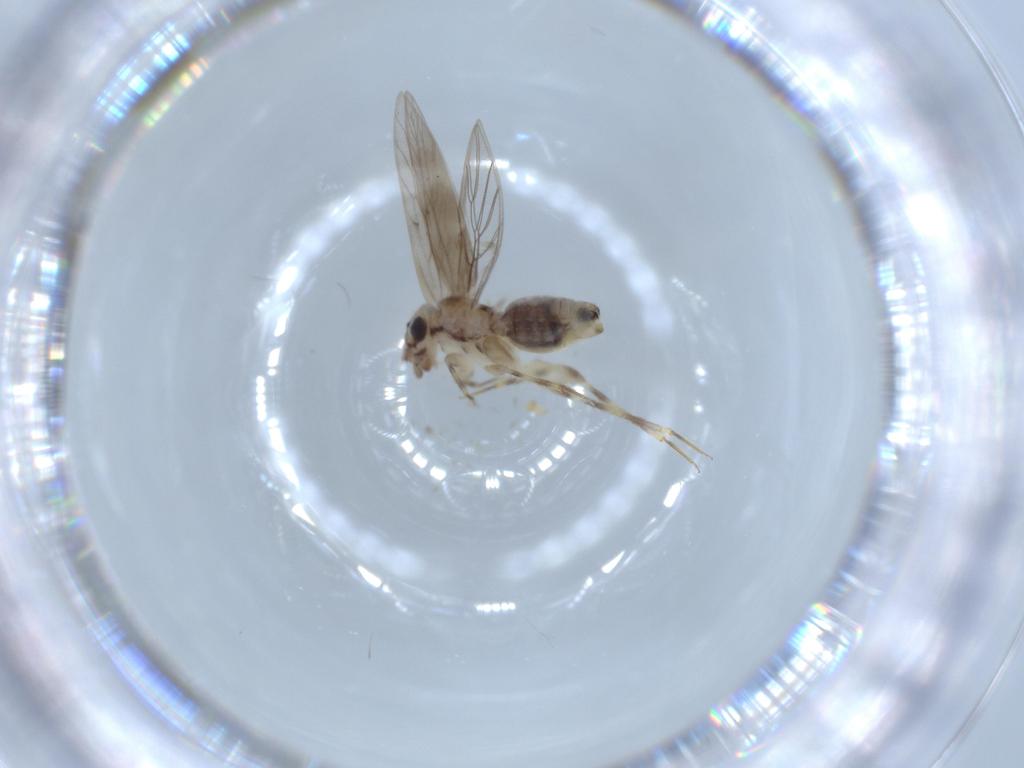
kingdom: Animalia
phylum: Arthropoda
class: Insecta
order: Psocodea
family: Lepidopsocidae
